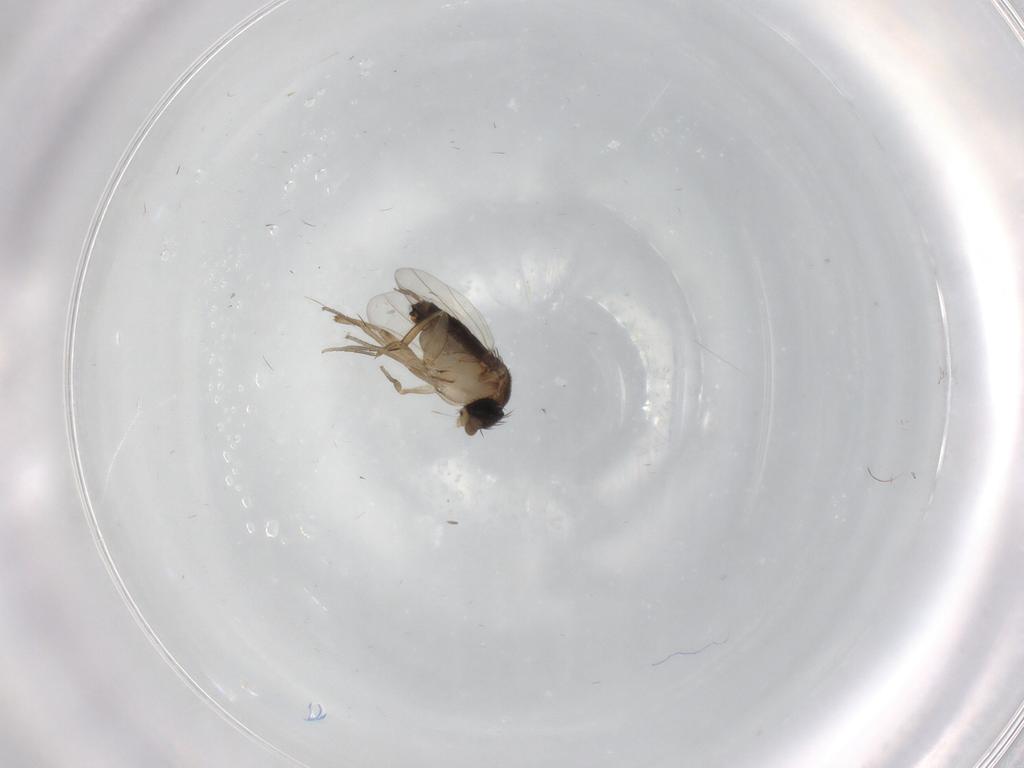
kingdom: Animalia
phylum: Arthropoda
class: Insecta
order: Diptera
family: Phoridae
